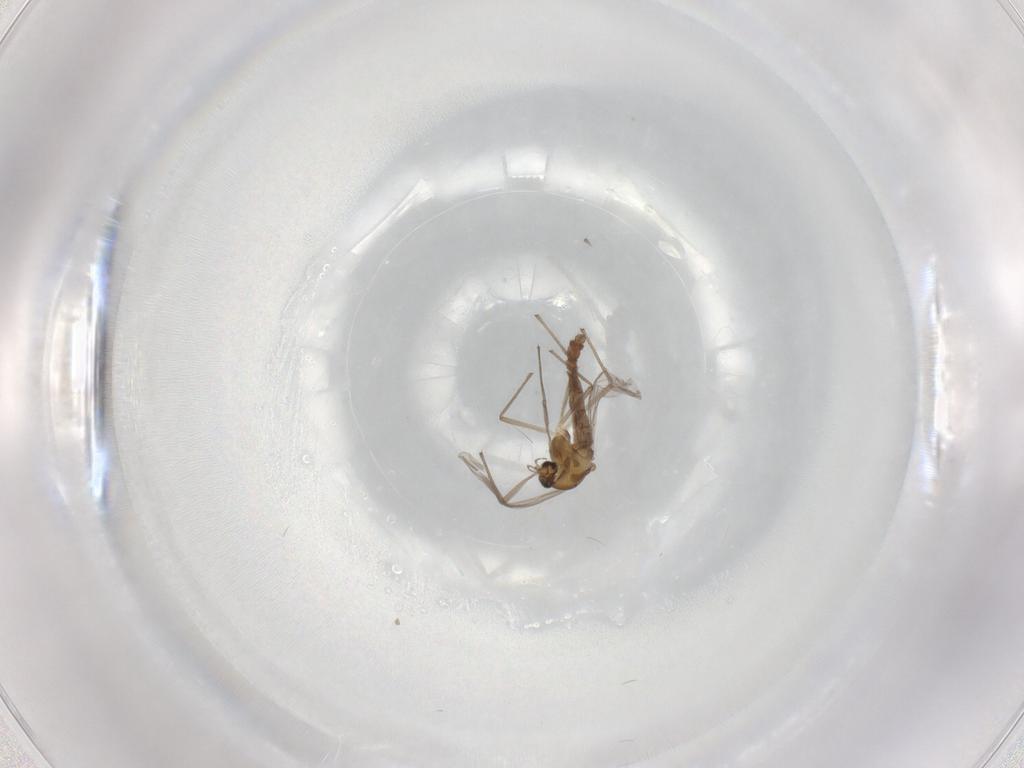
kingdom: Animalia
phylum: Arthropoda
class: Insecta
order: Diptera
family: Chironomidae
